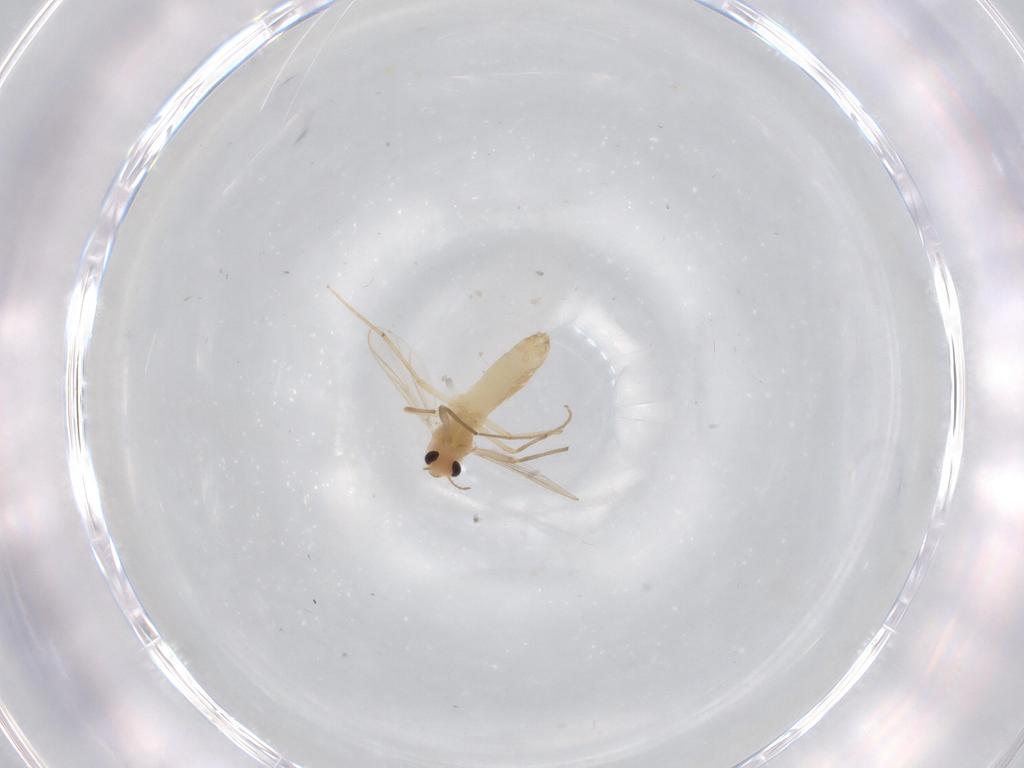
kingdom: Animalia
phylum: Arthropoda
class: Insecta
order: Diptera
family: Chironomidae
